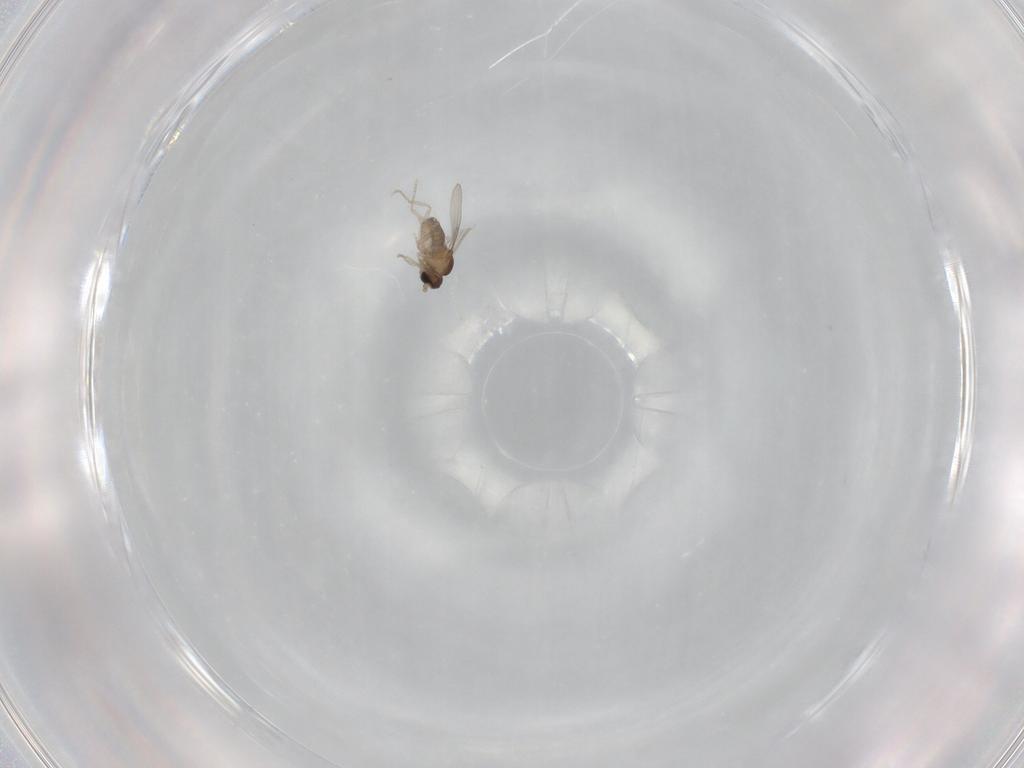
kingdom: Animalia
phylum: Arthropoda
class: Insecta
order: Diptera
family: Cecidomyiidae
